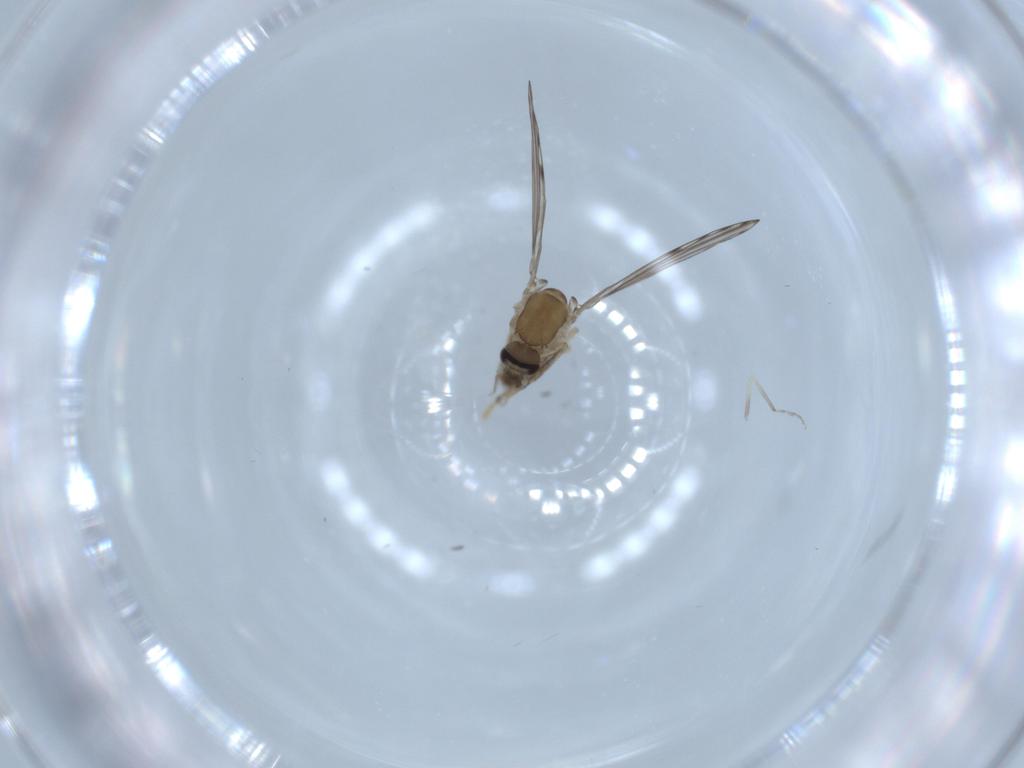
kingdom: Animalia
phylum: Arthropoda
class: Insecta
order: Diptera
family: Psychodidae
